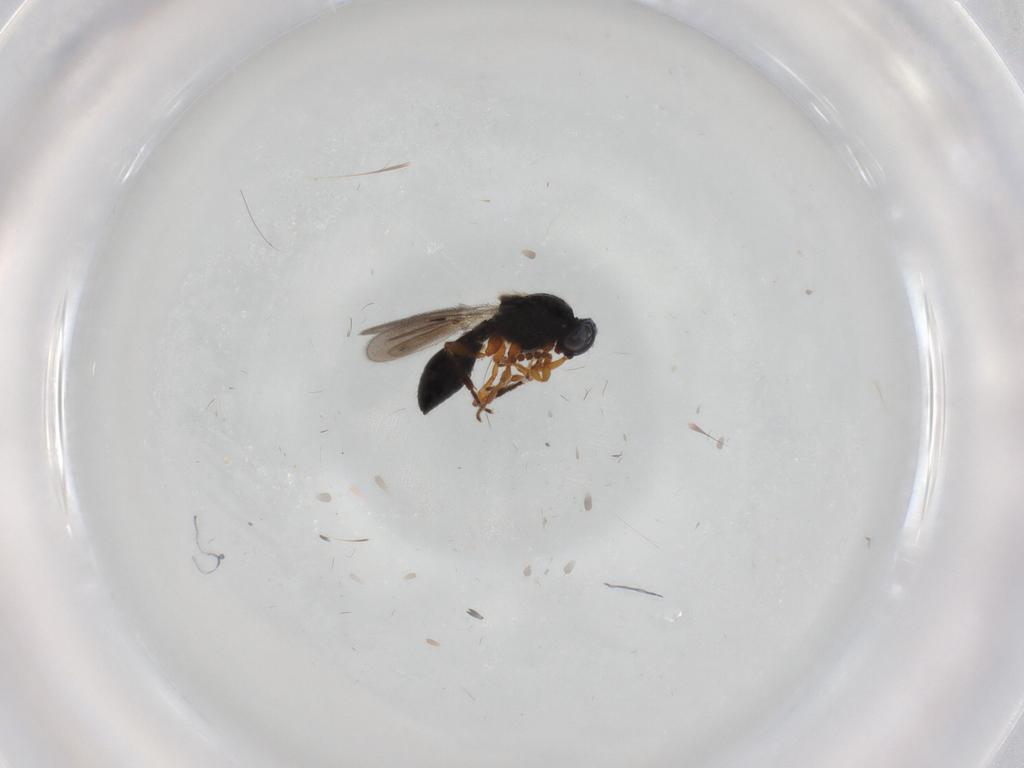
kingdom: Animalia
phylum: Arthropoda
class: Insecta
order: Hymenoptera
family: Platygastridae
